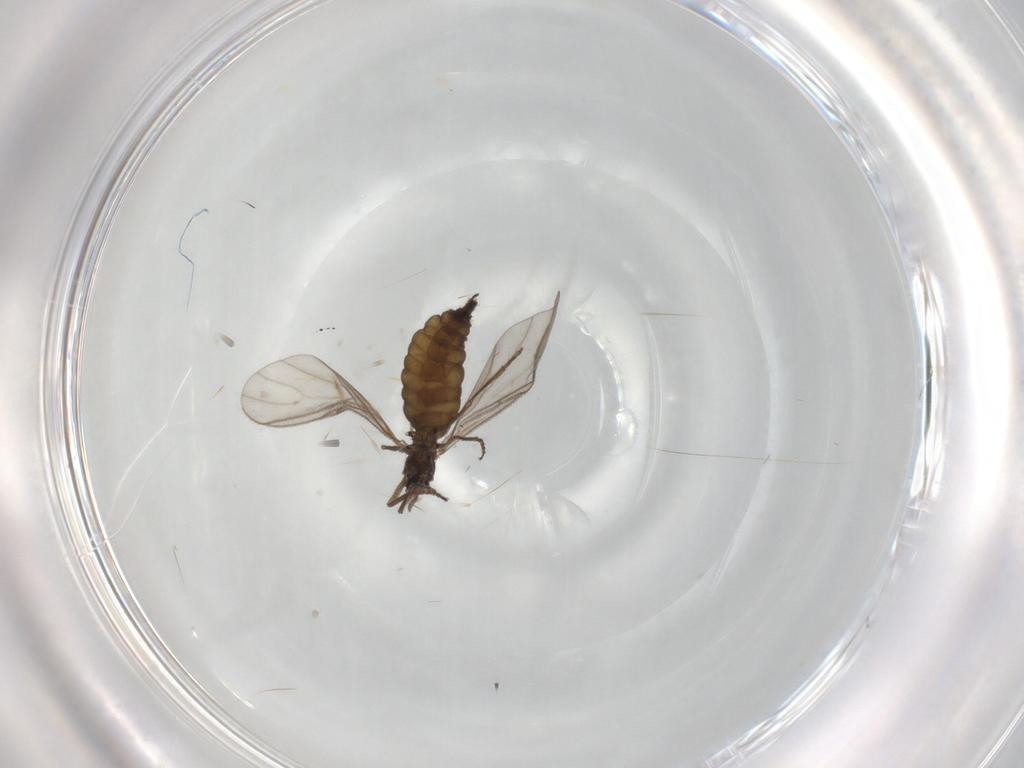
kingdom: Animalia
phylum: Arthropoda
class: Insecta
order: Diptera
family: Sciaridae
